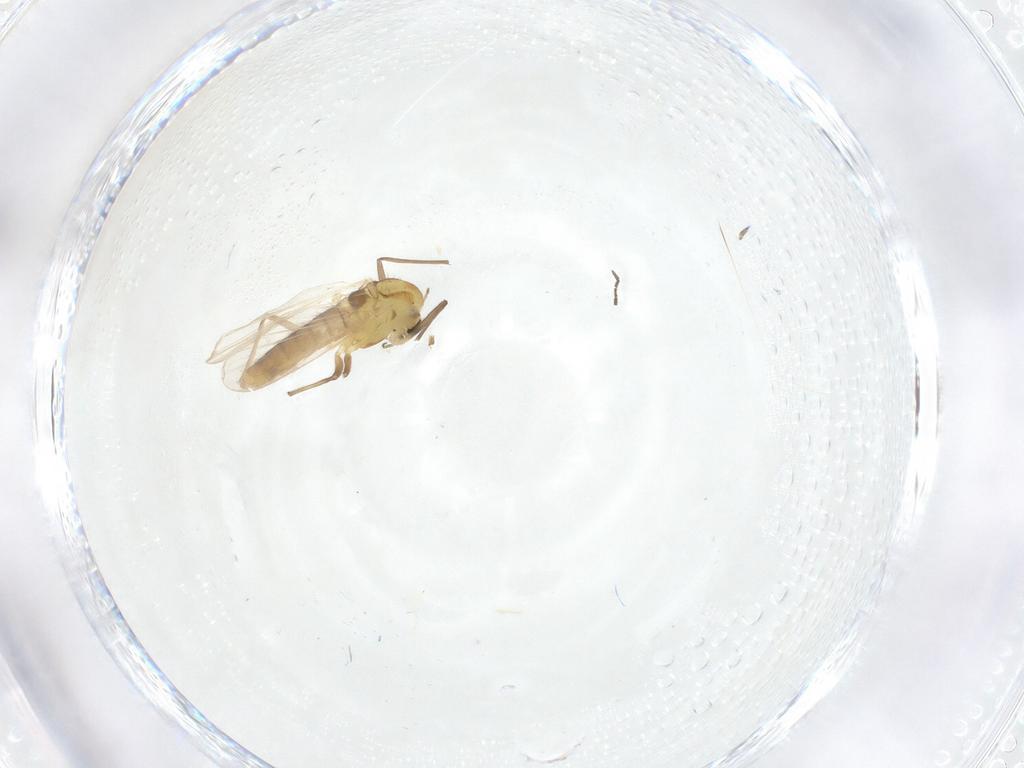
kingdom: Animalia
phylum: Arthropoda
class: Insecta
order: Diptera
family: Chironomidae
